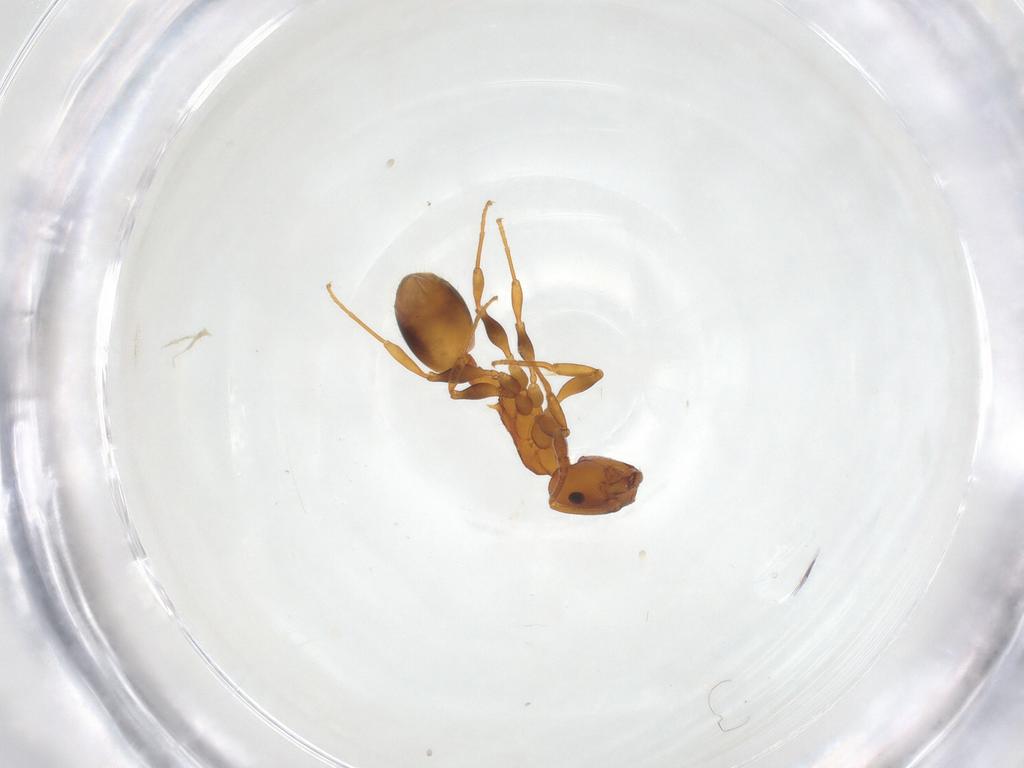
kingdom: Animalia
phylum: Arthropoda
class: Insecta
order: Hymenoptera
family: Formicidae
